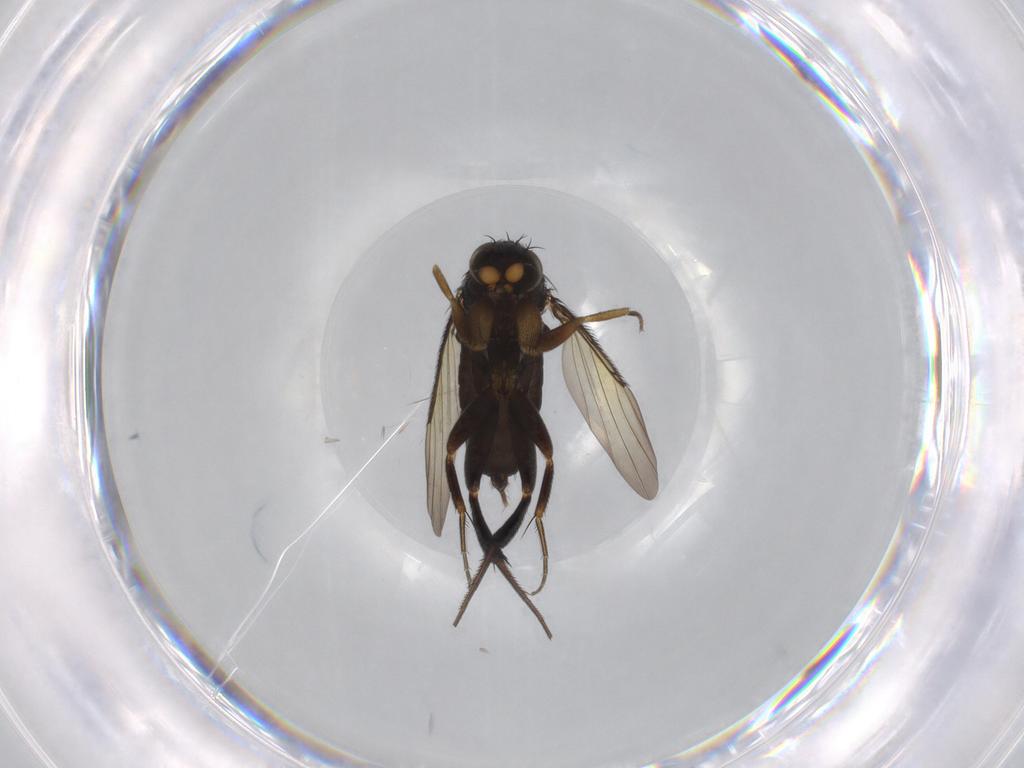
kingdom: Animalia
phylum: Arthropoda
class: Insecta
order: Diptera
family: Phoridae
